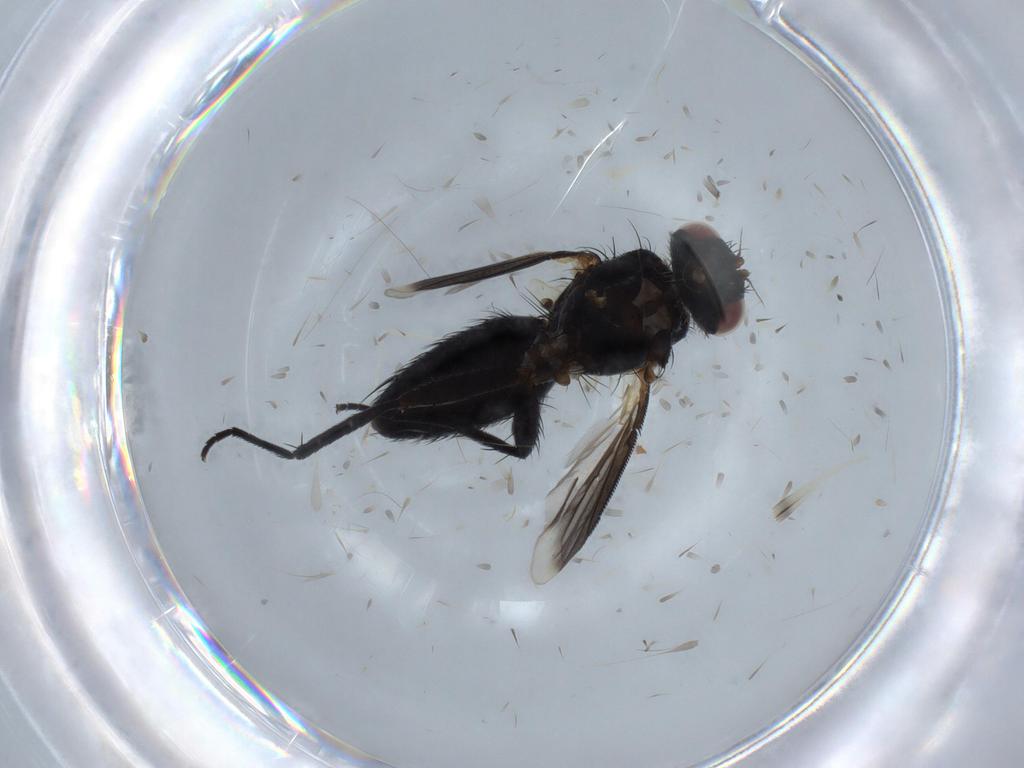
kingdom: Animalia
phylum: Arthropoda
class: Insecta
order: Diptera
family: Tachinidae
